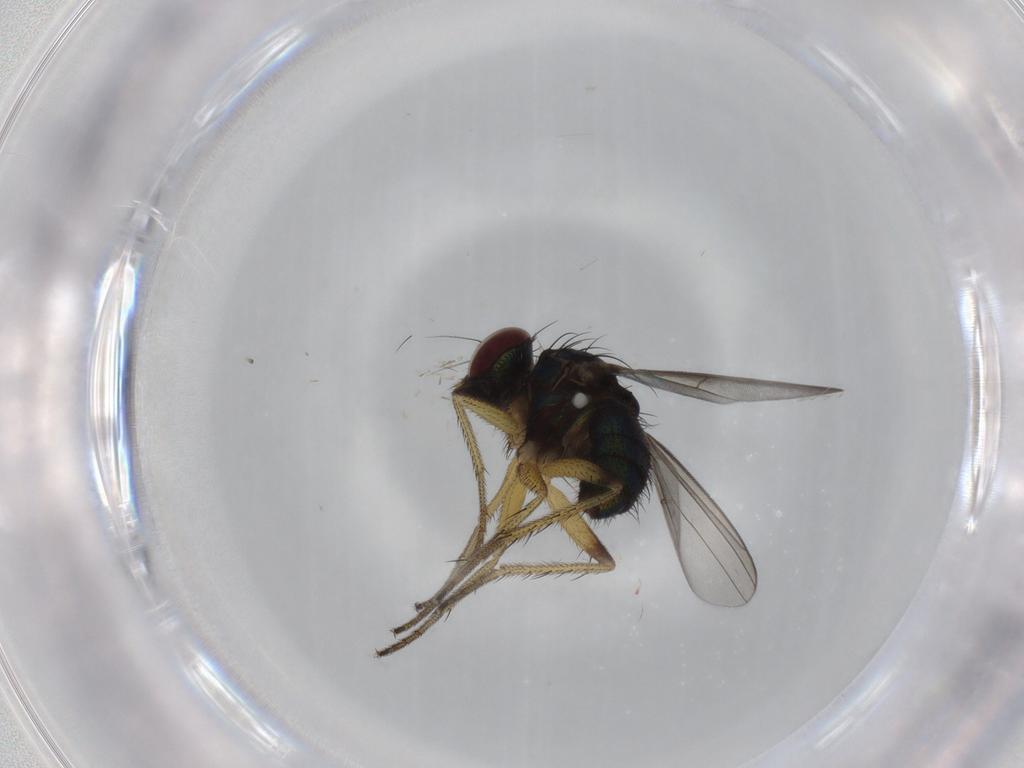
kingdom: Animalia
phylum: Arthropoda
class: Insecta
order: Diptera
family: Dolichopodidae
